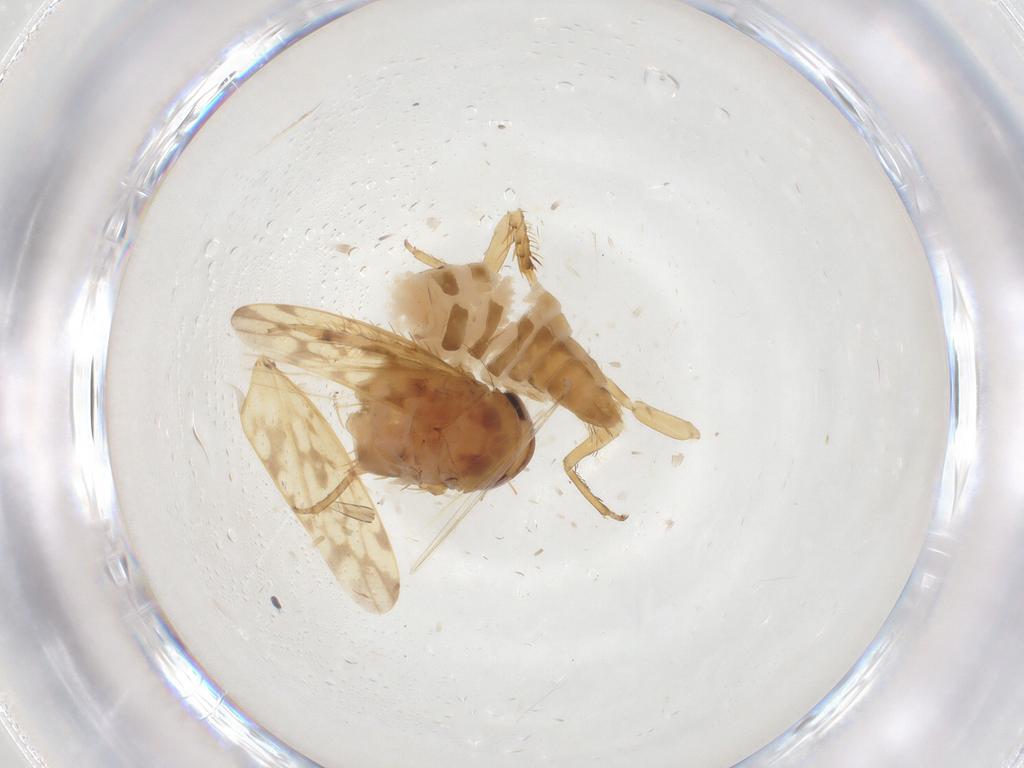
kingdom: Animalia
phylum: Arthropoda
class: Insecta
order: Hemiptera
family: Cicadellidae
